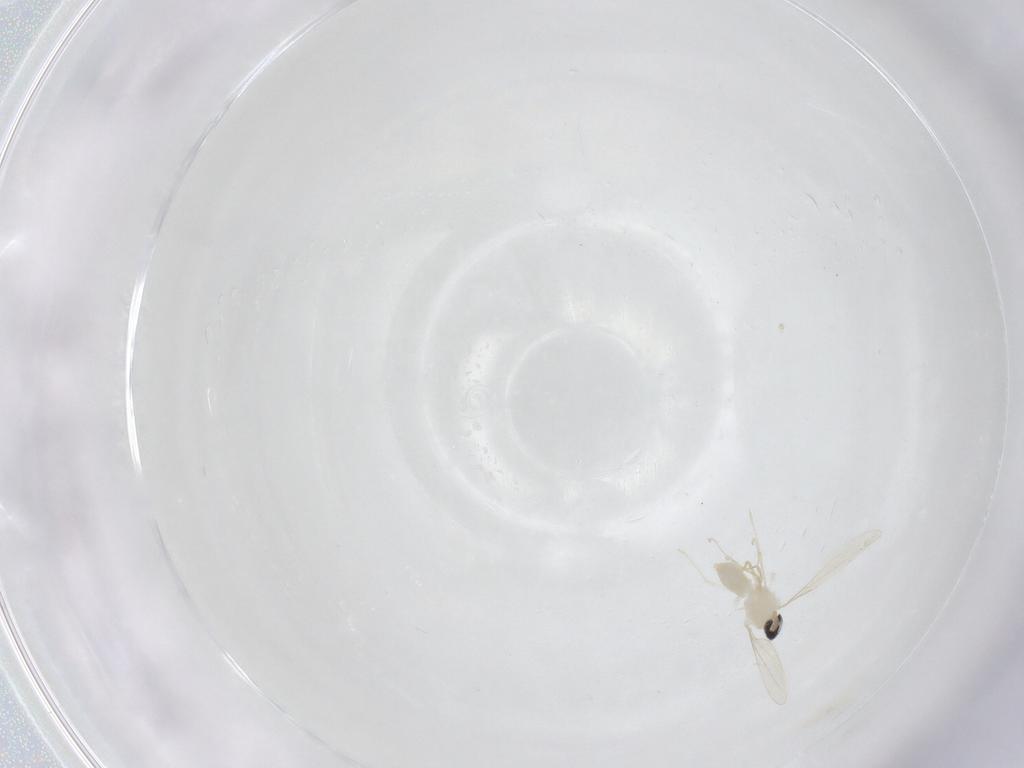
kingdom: Animalia
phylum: Arthropoda
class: Insecta
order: Diptera
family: Cecidomyiidae
